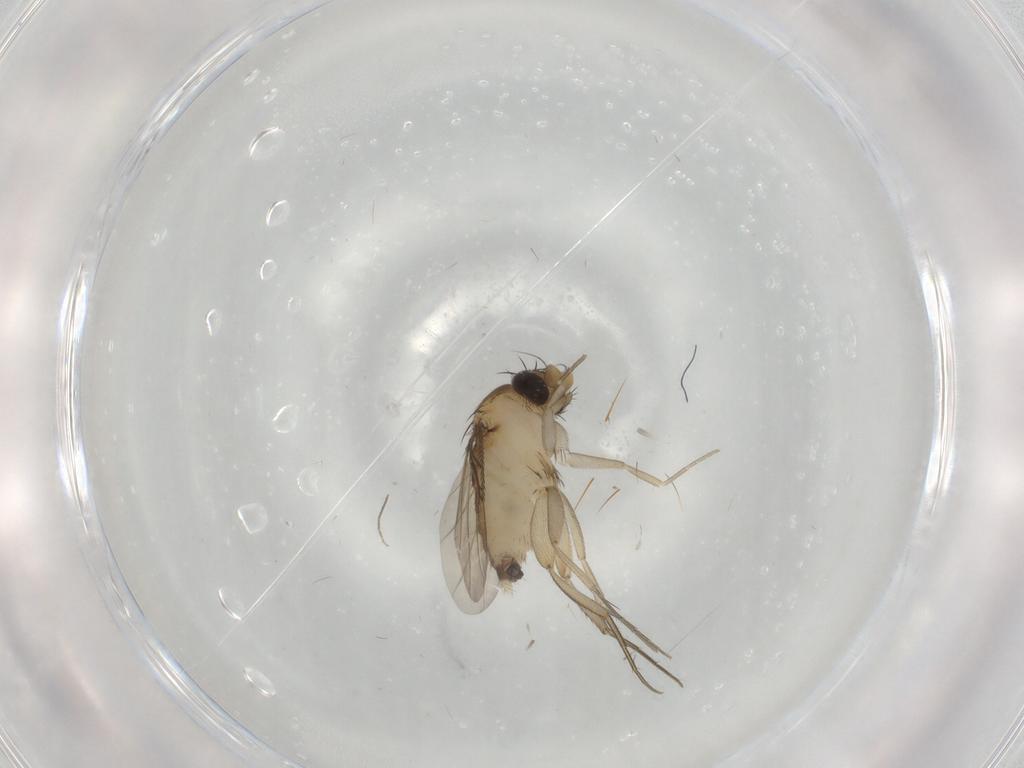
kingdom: Animalia
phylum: Arthropoda
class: Insecta
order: Diptera
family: Phoridae
